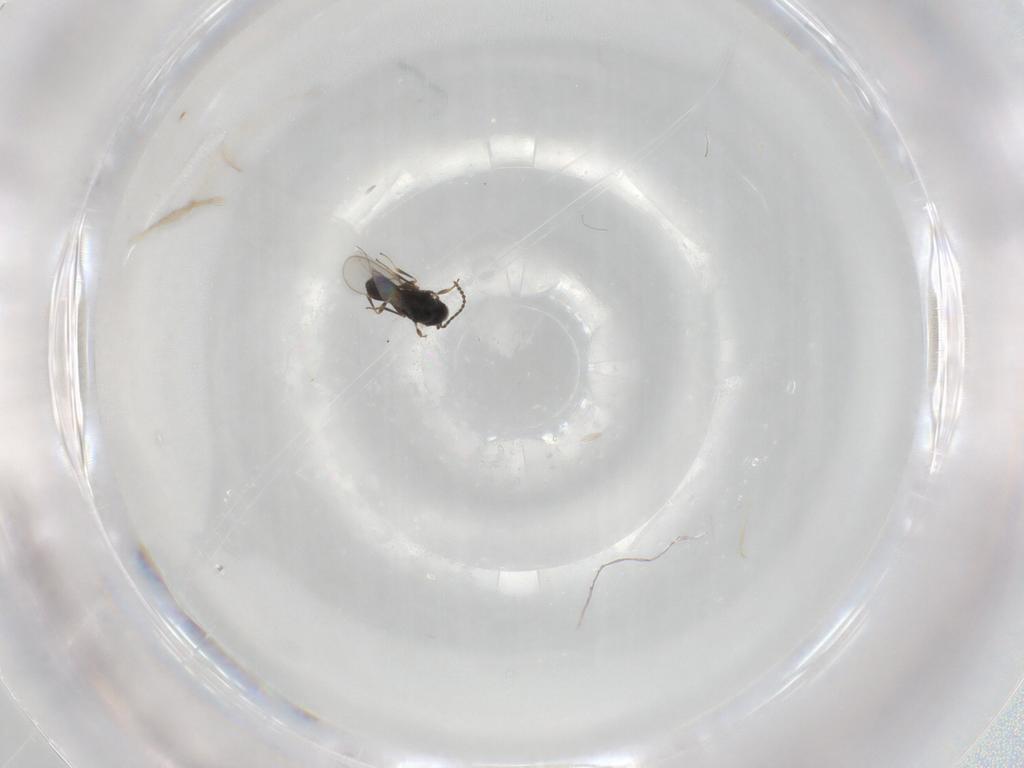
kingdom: Animalia
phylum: Arthropoda
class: Insecta
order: Hymenoptera
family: Scelionidae
